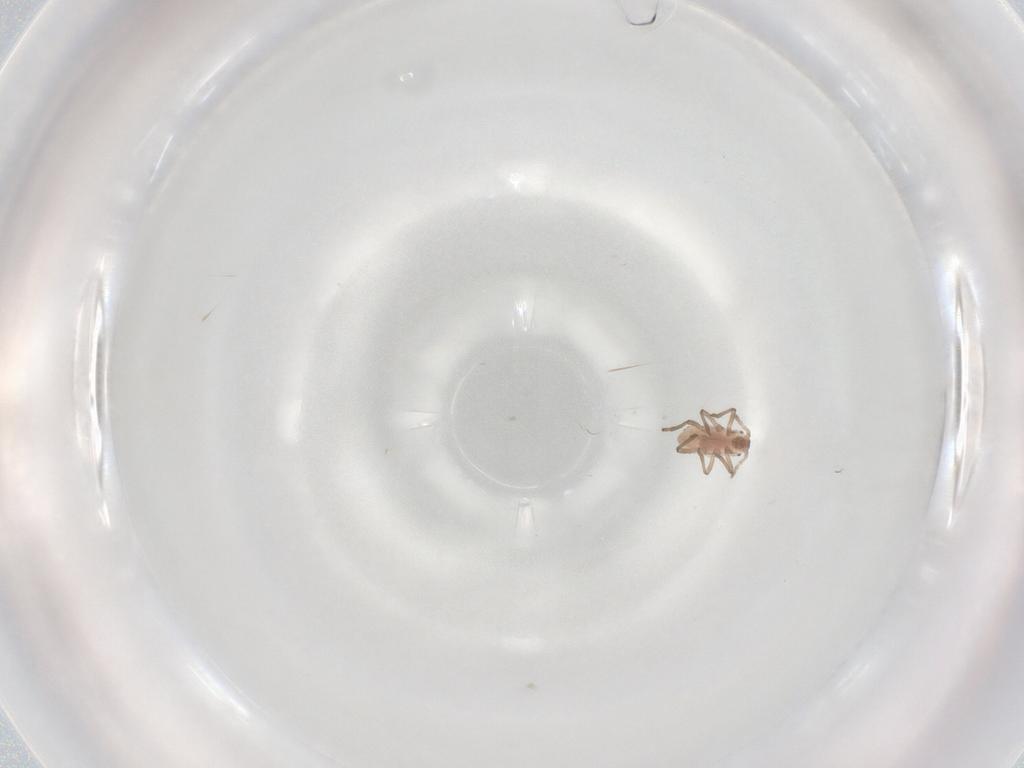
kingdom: Animalia
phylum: Arthropoda
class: Insecta
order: Hemiptera
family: Aphididae
